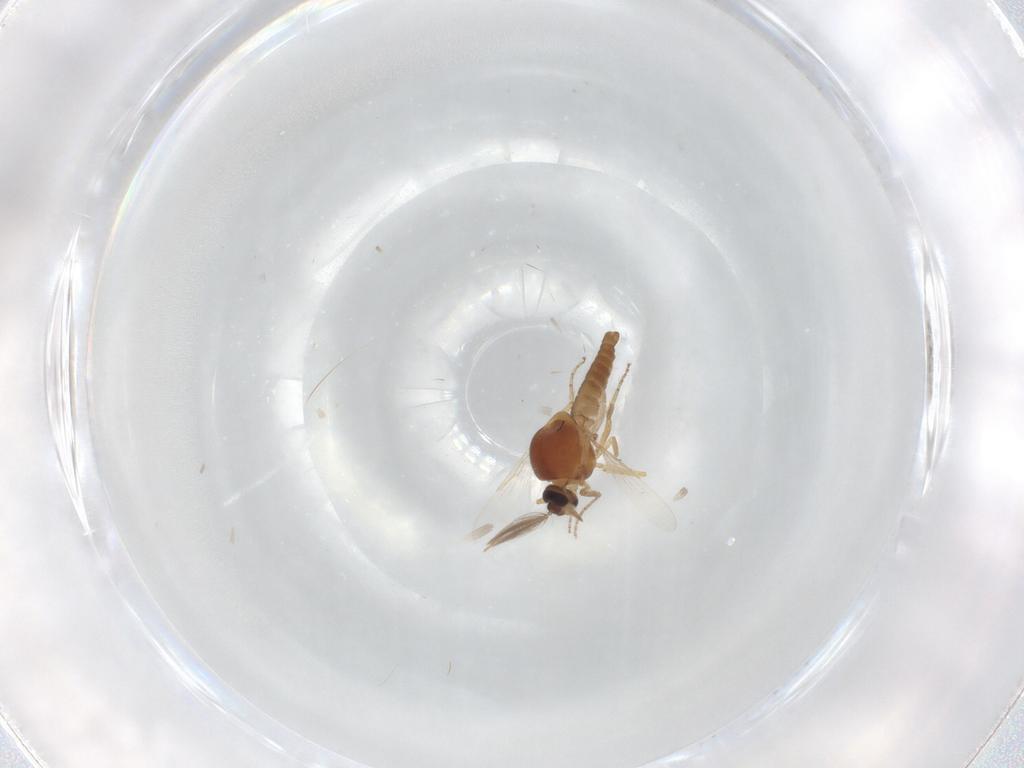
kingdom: Animalia
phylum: Arthropoda
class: Insecta
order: Diptera
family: Ceratopogonidae
